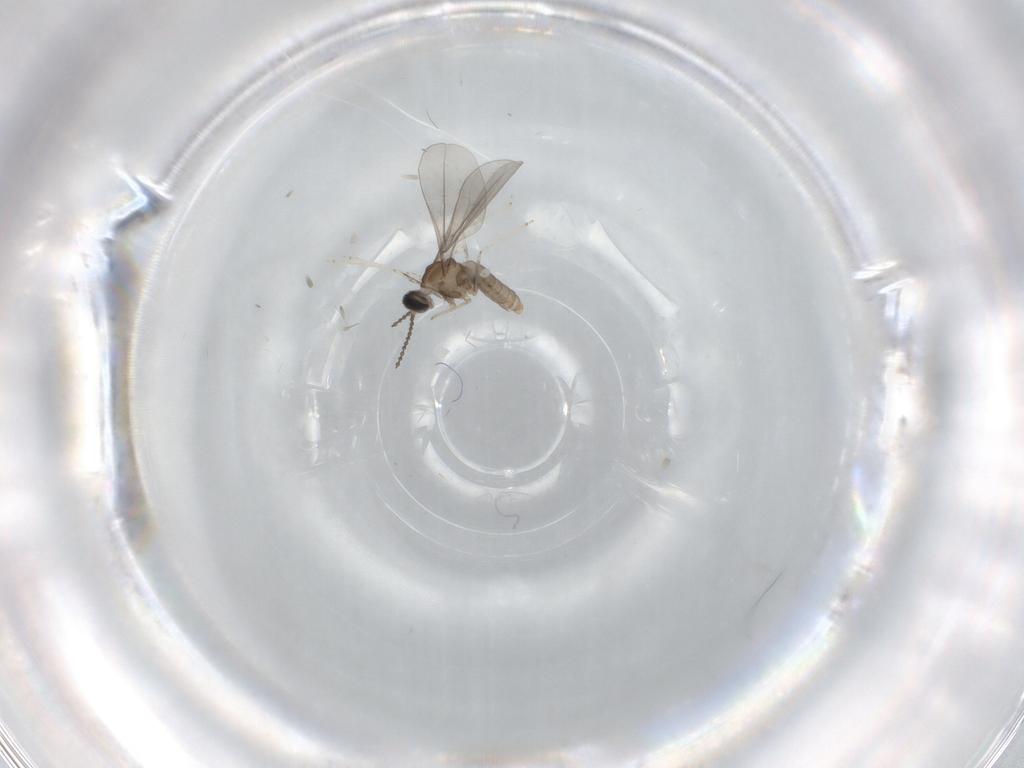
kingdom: Animalia
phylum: Arthropoda
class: Insecta
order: Diptera
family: Cecidomyiidae
